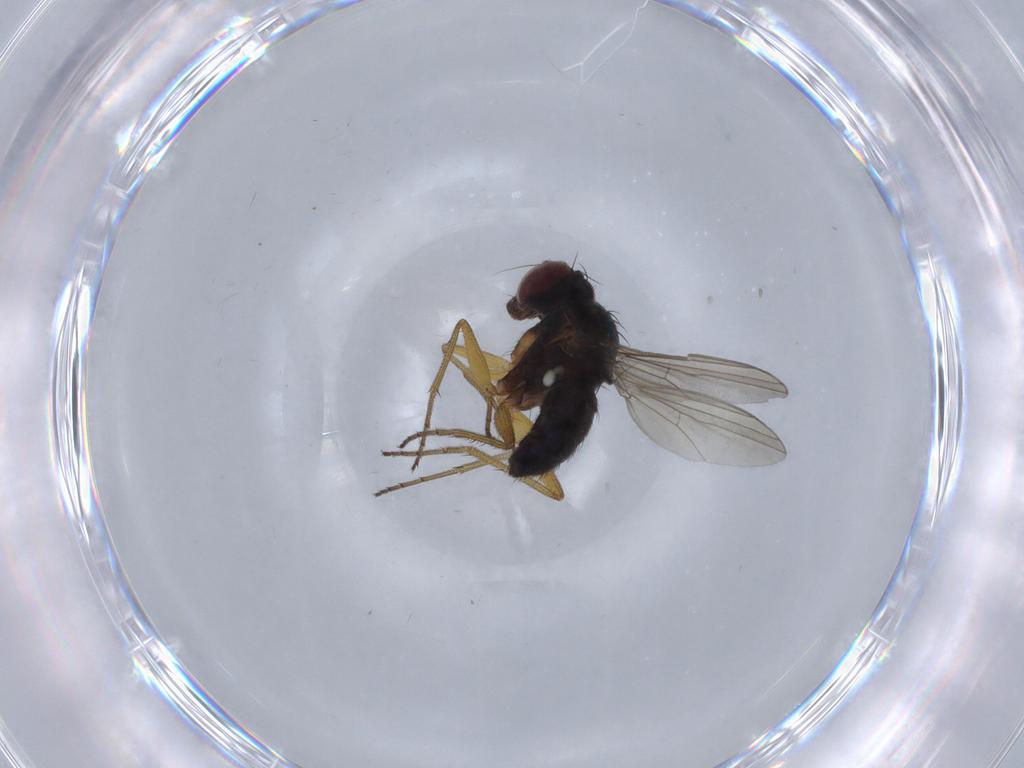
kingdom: Animalia
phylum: Arthropoda
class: Insecta
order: Diptera
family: Dolichopodidae
